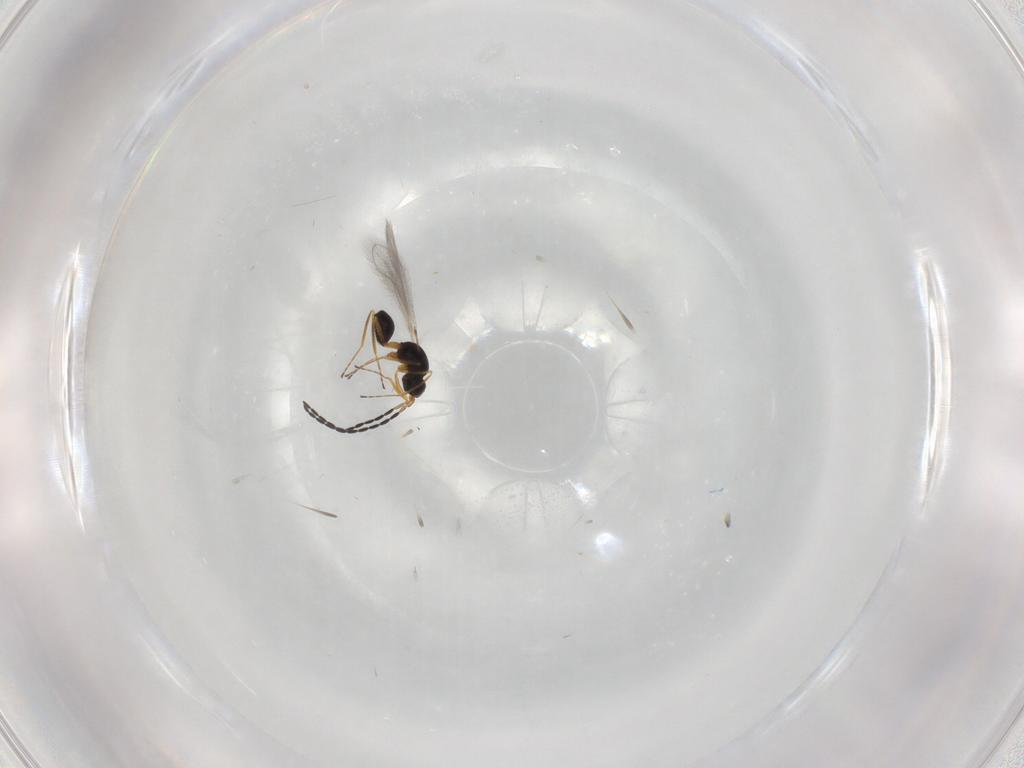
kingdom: Animalia
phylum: Arthropoda
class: Insecta
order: Hymenoptera
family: Mymaridae
